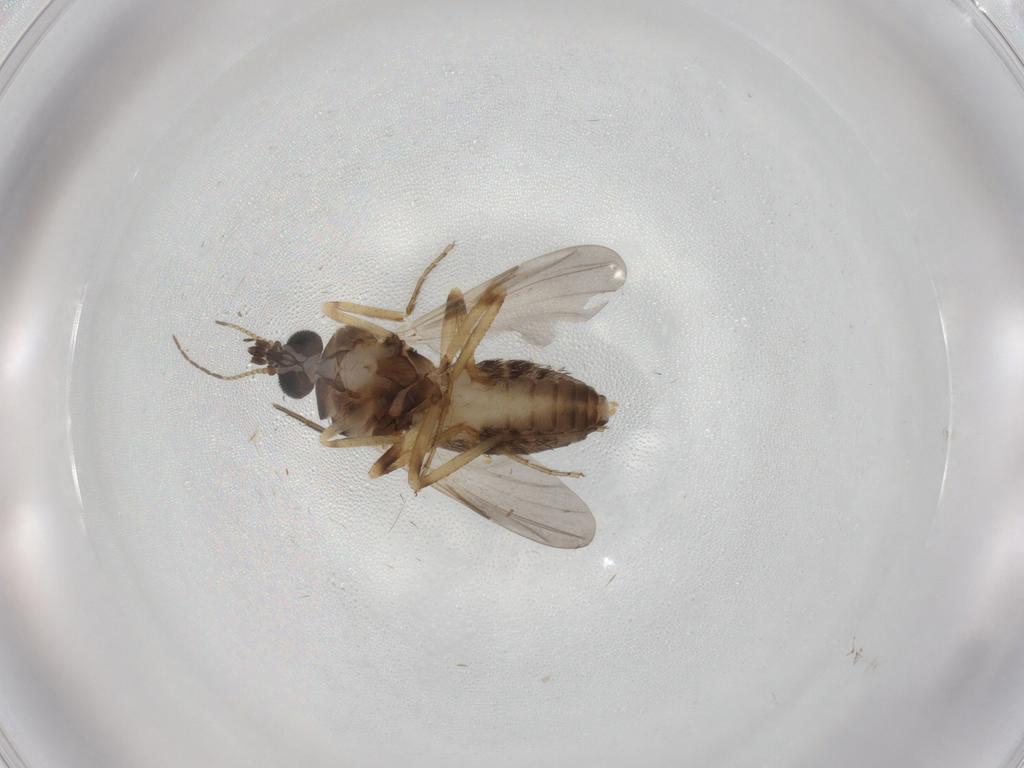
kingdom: Animalia
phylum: Arthropoda
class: Insecta
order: Diptera
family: Ceratopogonidae
